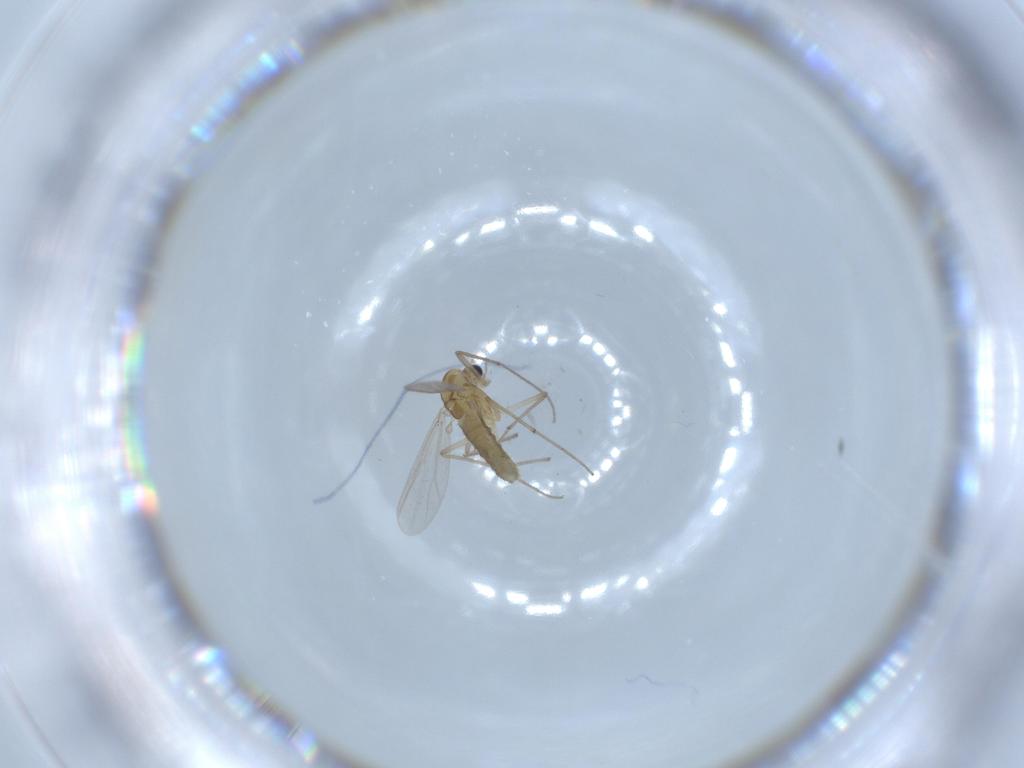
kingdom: Animalia
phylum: Arthropoda
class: Insecta
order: Diptera
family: Chironomidae
